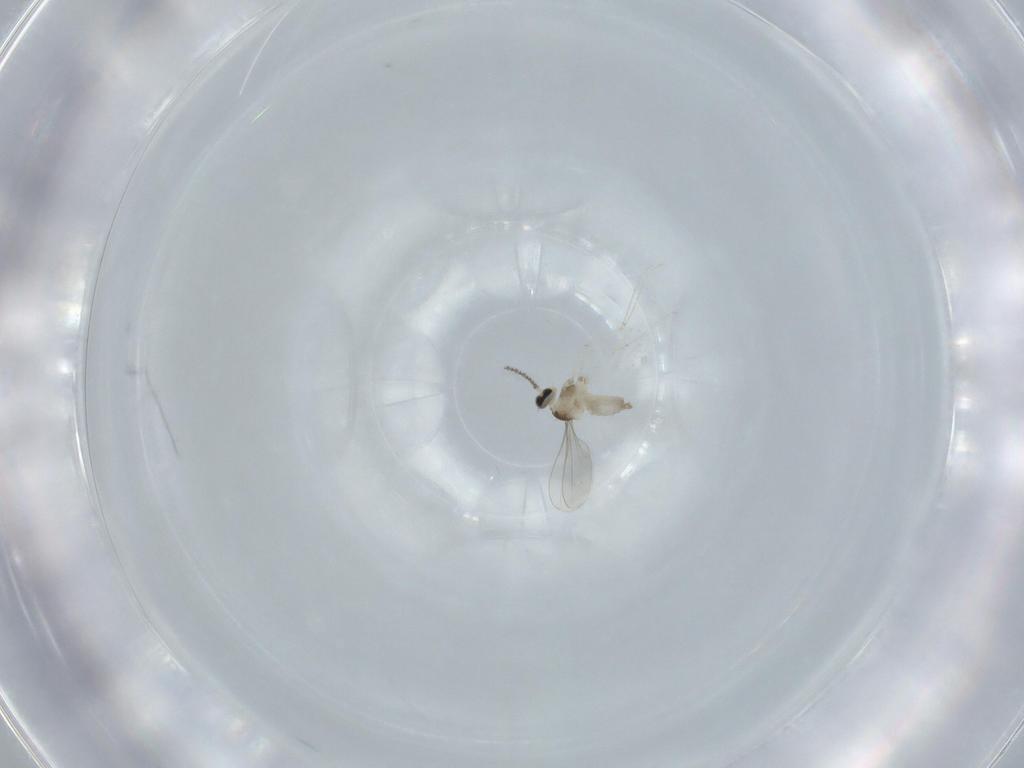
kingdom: Animalia
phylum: Arthropoda
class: Insecta
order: Diptera
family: Cecidomyiidae
